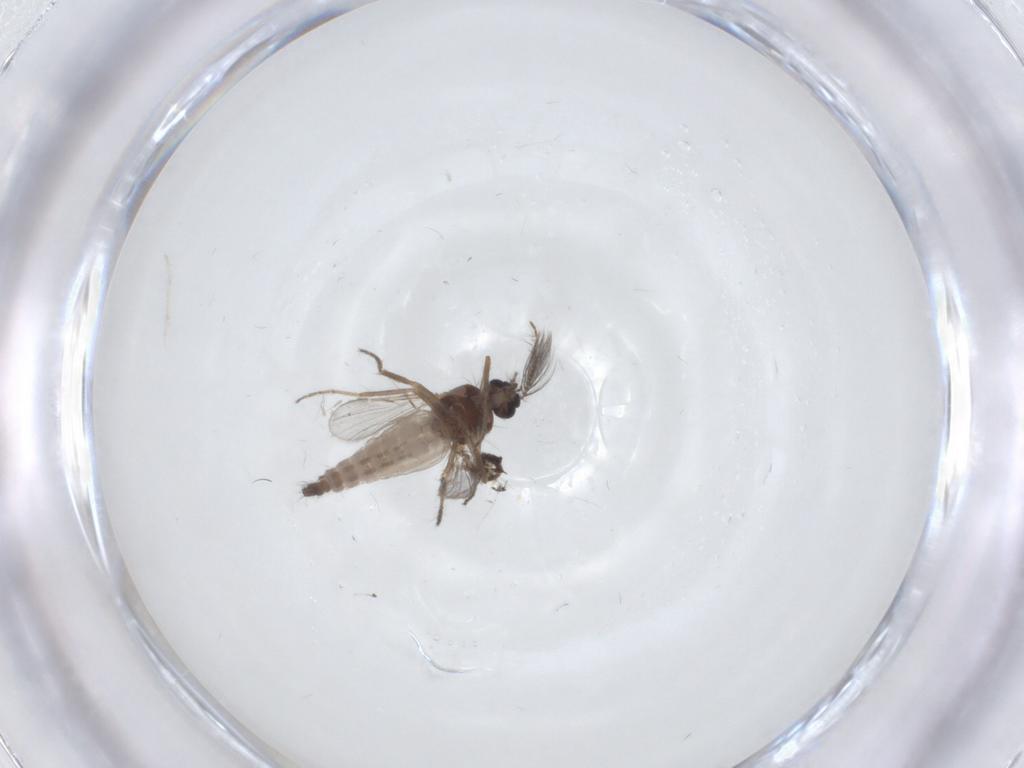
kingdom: Animalia
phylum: Arthropoda
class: Insecta
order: Diptera
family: Ceratopogonidae
